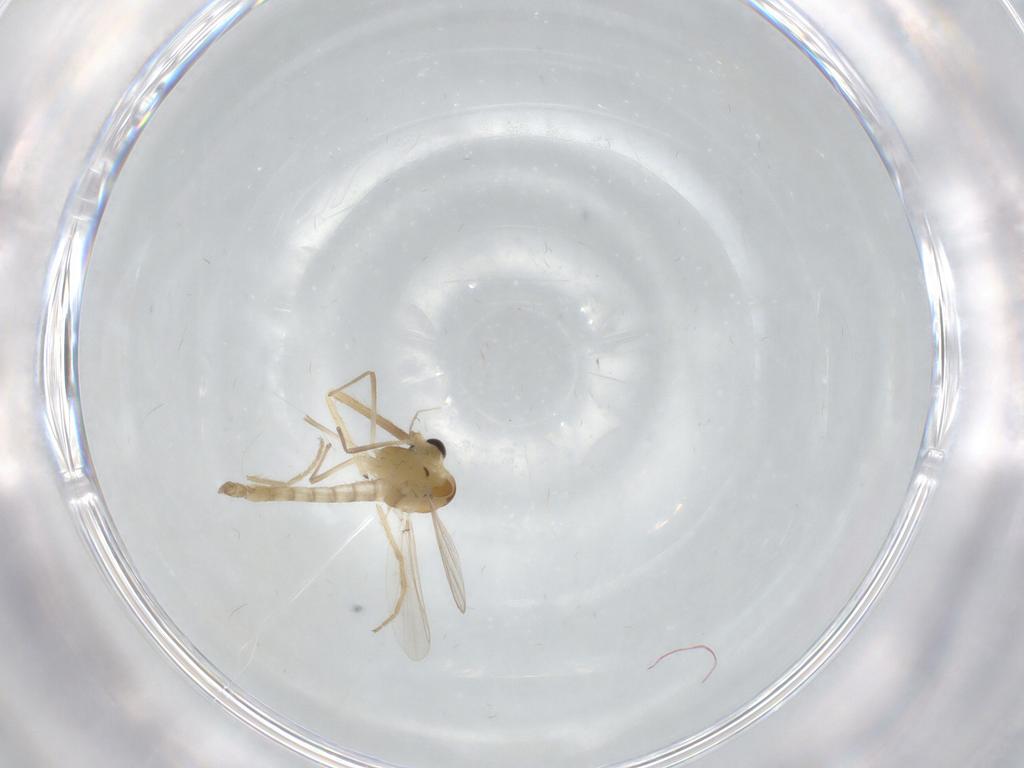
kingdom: Animalia
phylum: Arthropoda
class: Insecta
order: Diptera
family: Chironomidae
